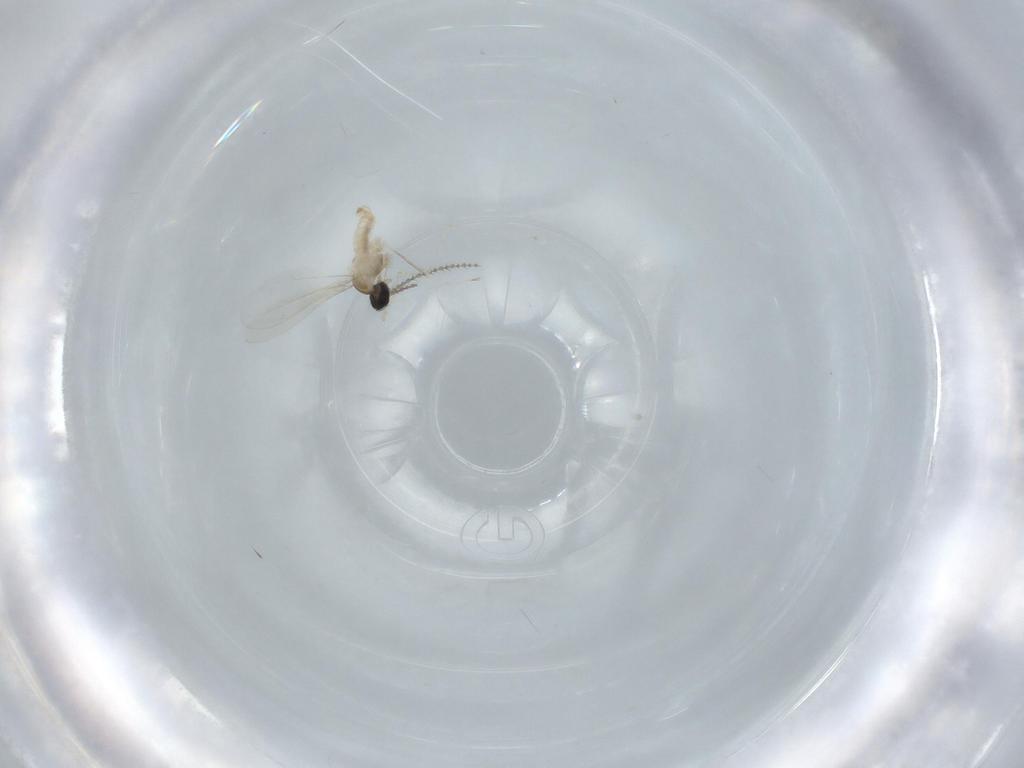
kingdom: Animalia
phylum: Arthropoda
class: Insecta
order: Diptera
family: Cecidomyiidae
